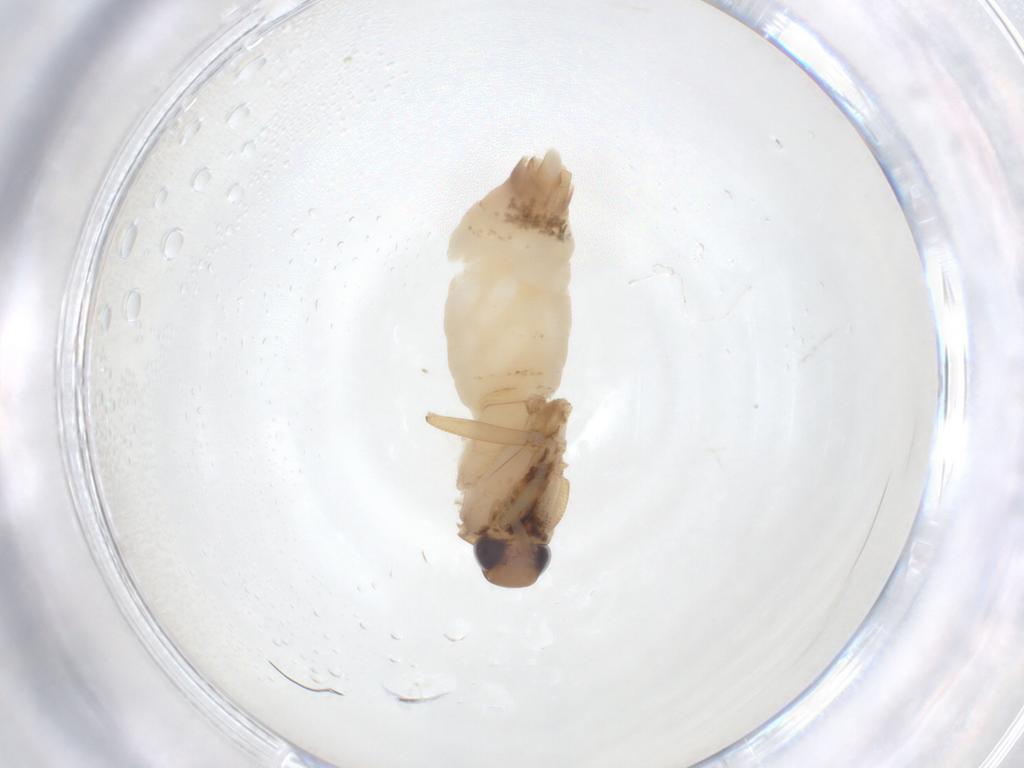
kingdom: Animalia
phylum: Arthropoda
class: Insecta
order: Lepidoptera
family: Gelechiidae
